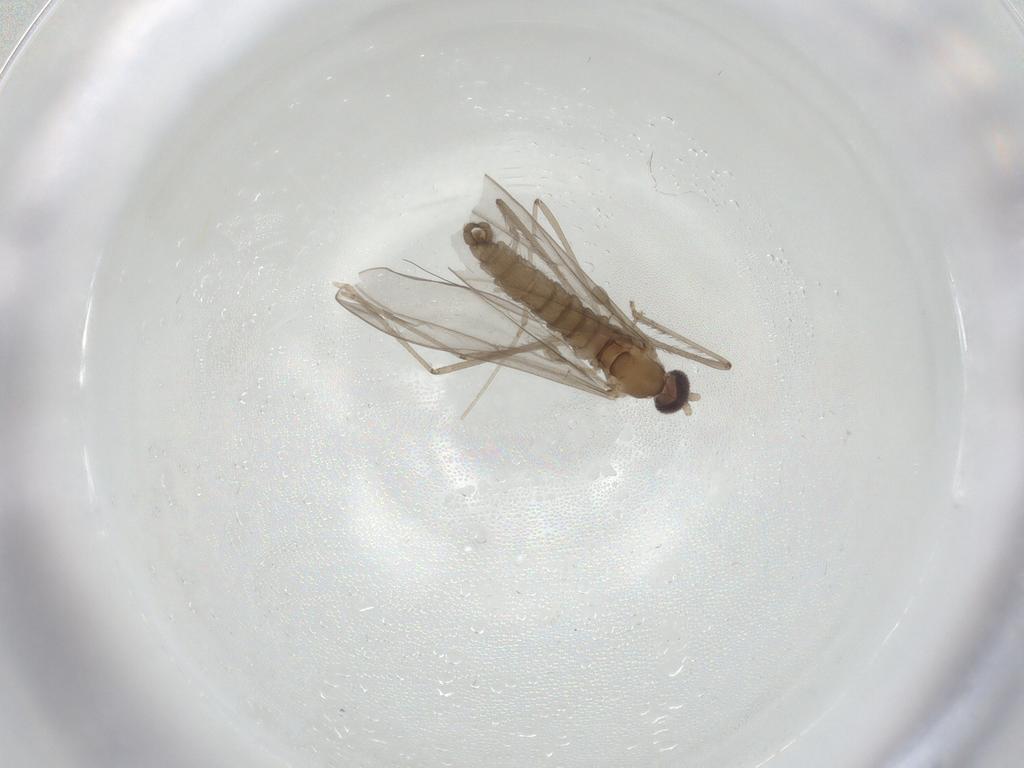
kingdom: Animalia
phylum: Arthropoda
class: Insecta
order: Diptera
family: Cecidomyiidae
